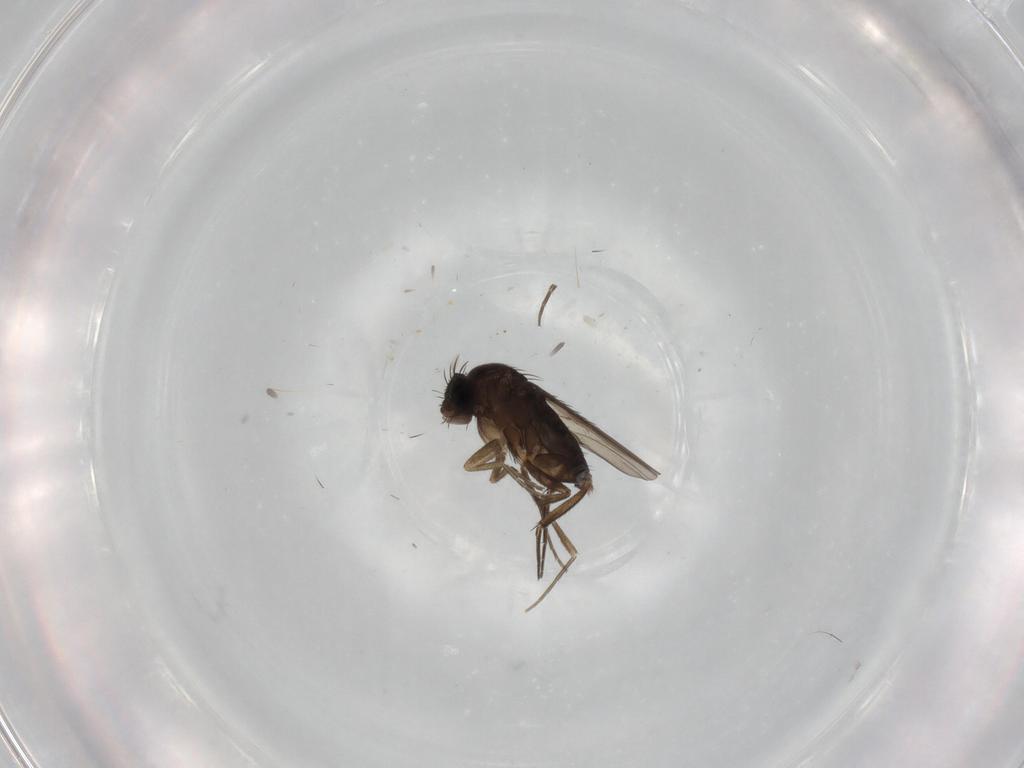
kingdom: Animalia
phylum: Arthropoda
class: Insecta
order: Diptera
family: Phoridae
